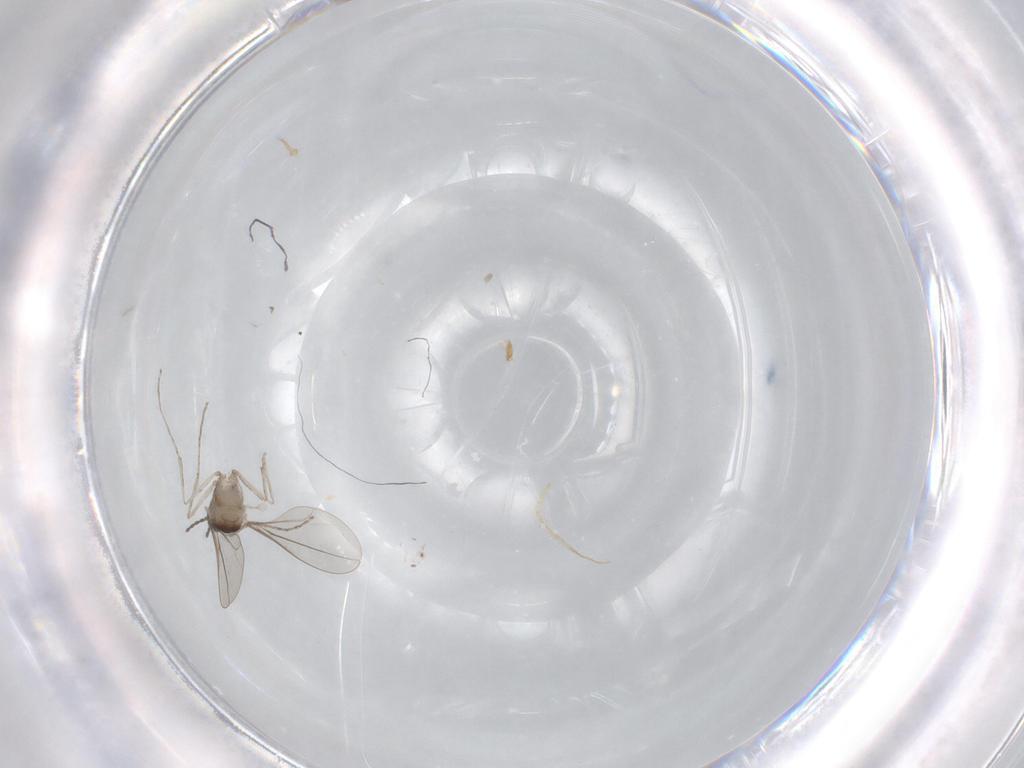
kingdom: Animalia
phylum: Arthropoda
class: Insecta
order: Diptera
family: Chironomidae
